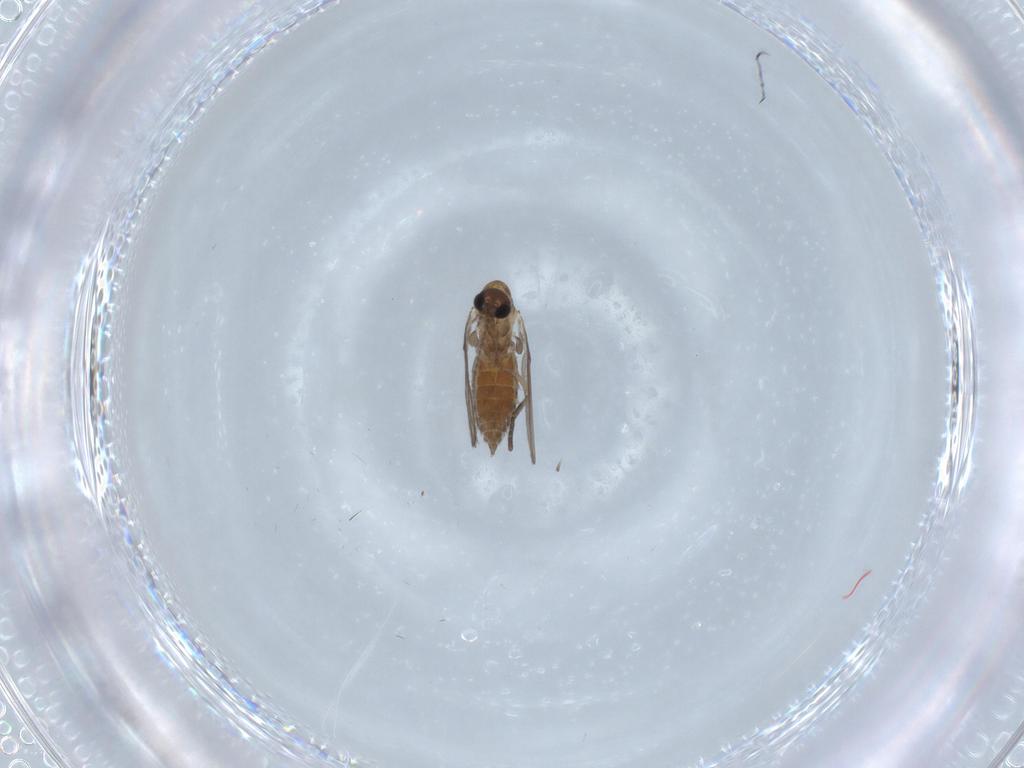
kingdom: Animalia
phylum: Arthropoda
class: Insecta
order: Diptera
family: Psychodidae
